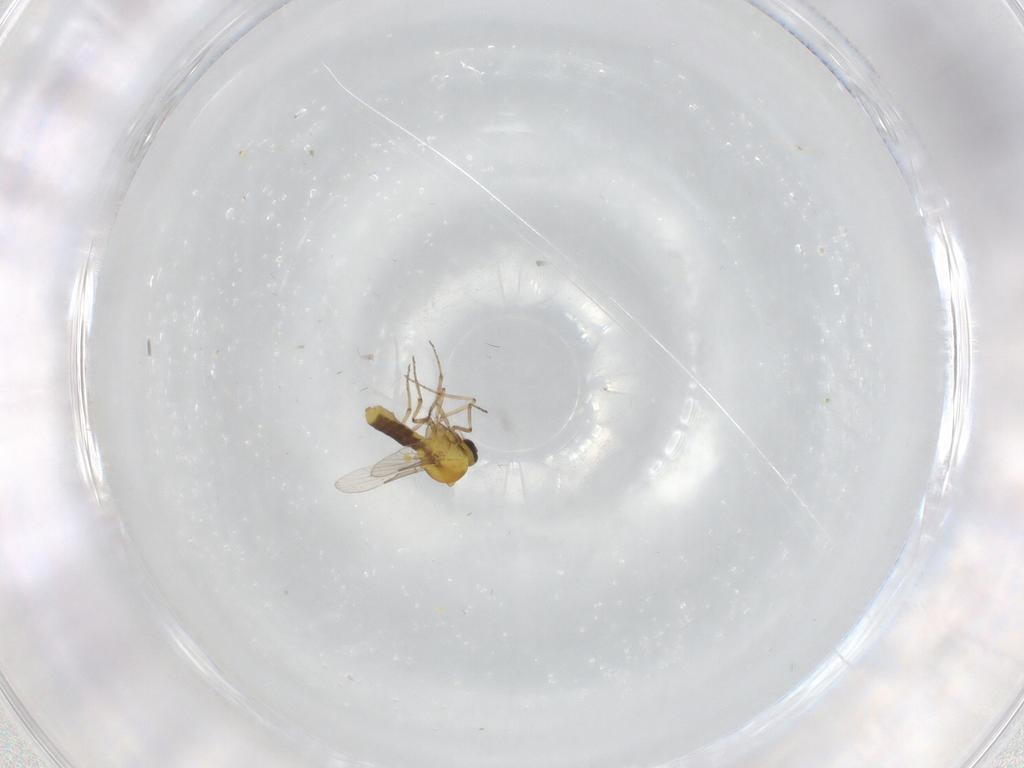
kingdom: Animalia
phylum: Arthropoda
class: Insecta
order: Diptera
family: Ceratopogonidae
